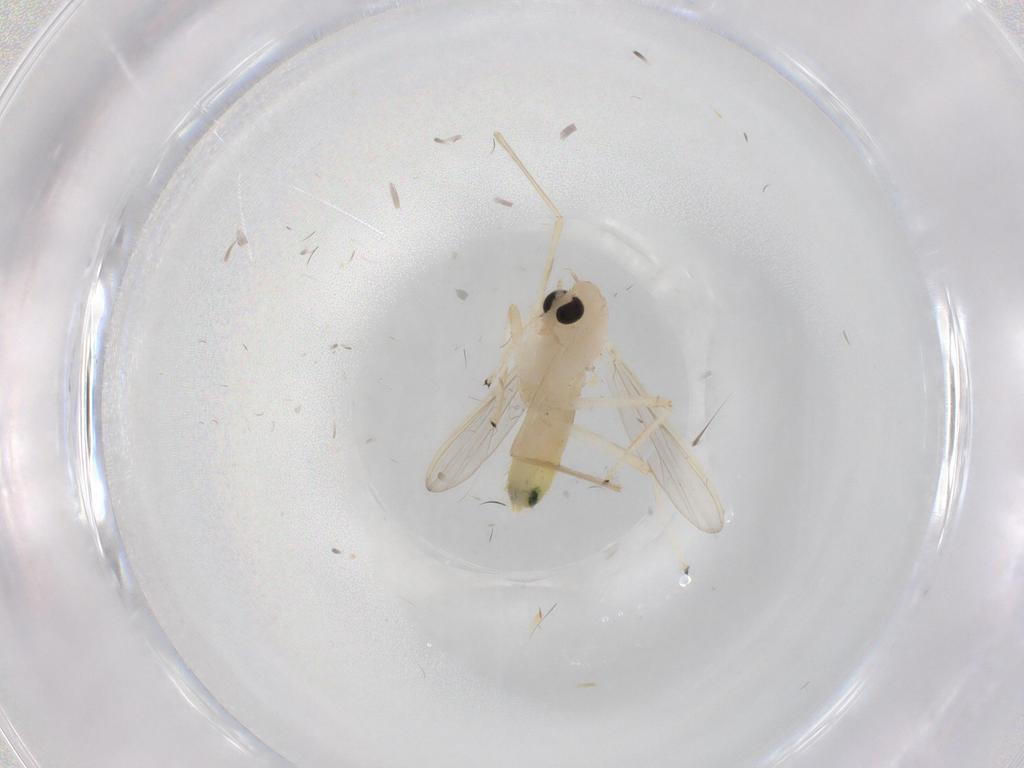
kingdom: Animalia
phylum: Arthropoda
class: Insecta
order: Diptera
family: Chironomidae
